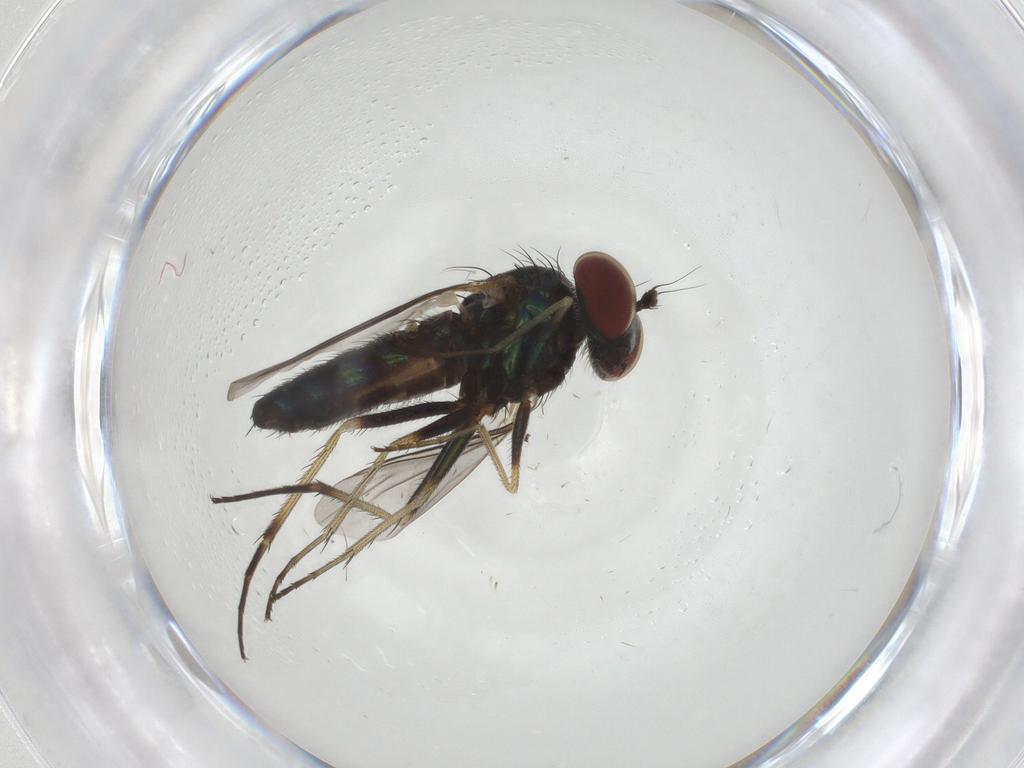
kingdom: Animalia
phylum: Arthropoda
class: Insecta
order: Diptera
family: Dolichopodidae
